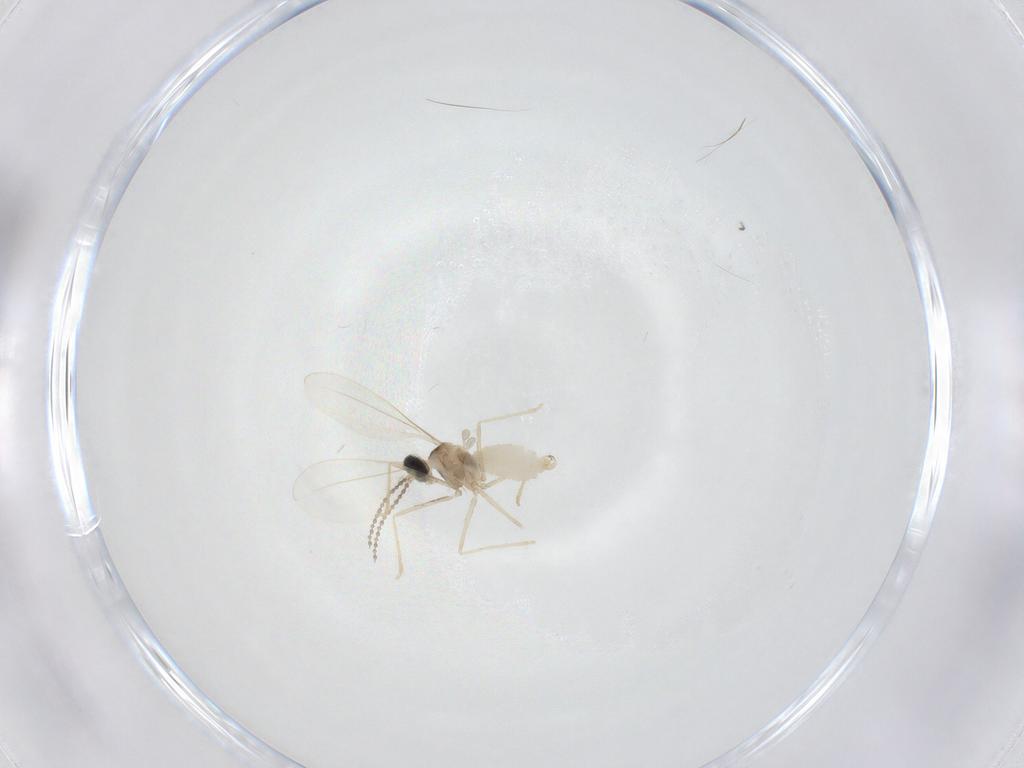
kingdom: Animalia
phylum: Arthropoda
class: Insecta
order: Diptera
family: Cecidomyiidae
